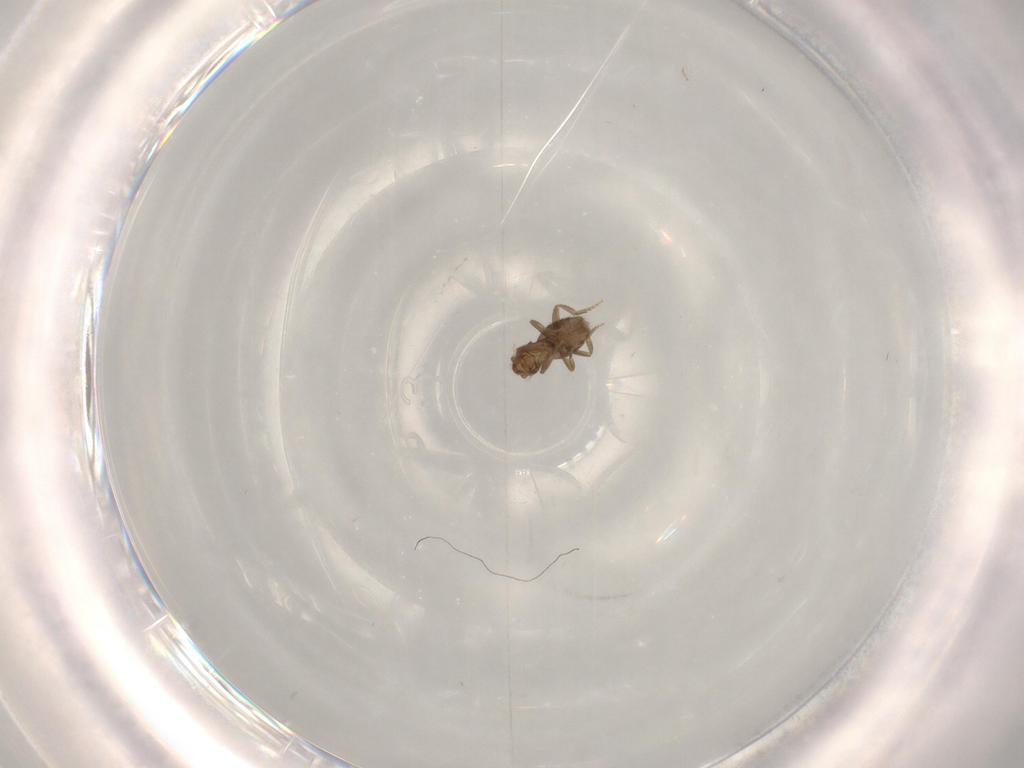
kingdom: Animalia
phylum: Arthropoda
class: Insecta
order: Diptera
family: Phoridae
